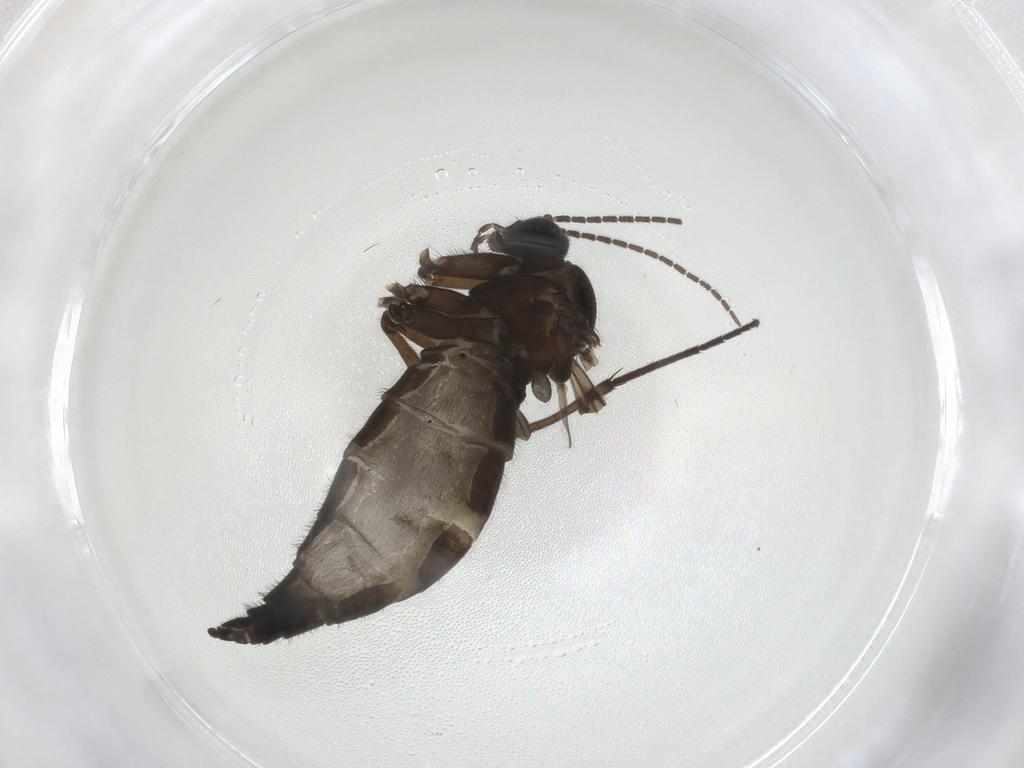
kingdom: Animalia
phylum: Arthropoda
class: Insecta
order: Diptera
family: Sciaridae
